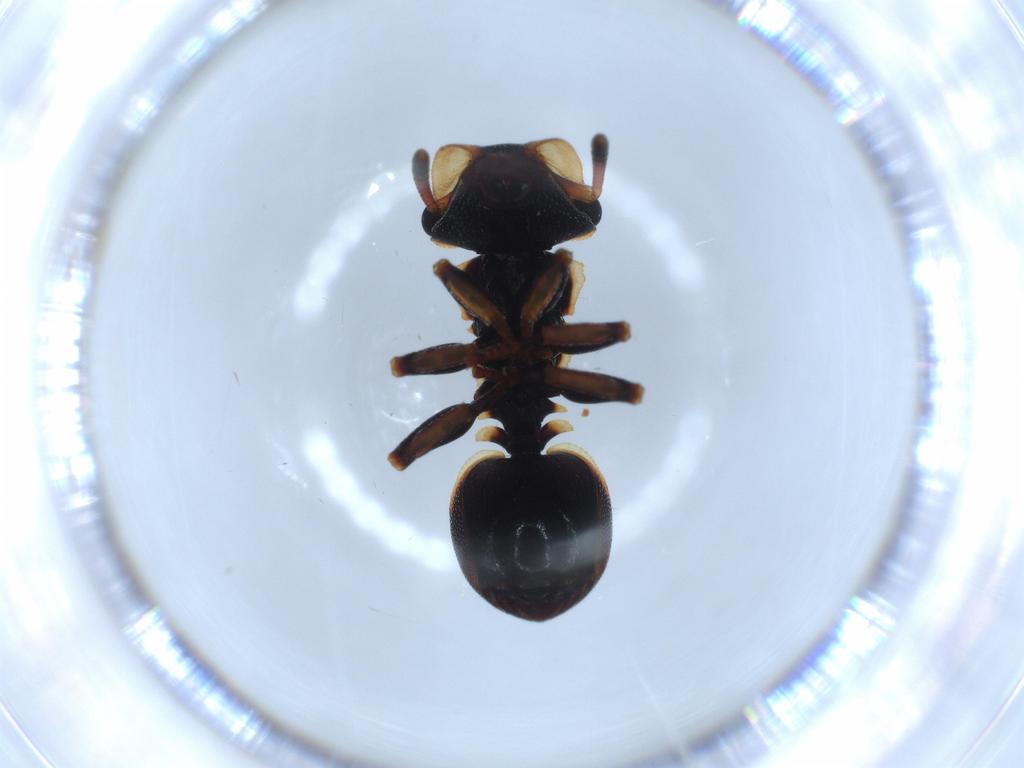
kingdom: Animalia
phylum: Arthropoda
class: Insecta
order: Hymenoptera
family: Formicidae
